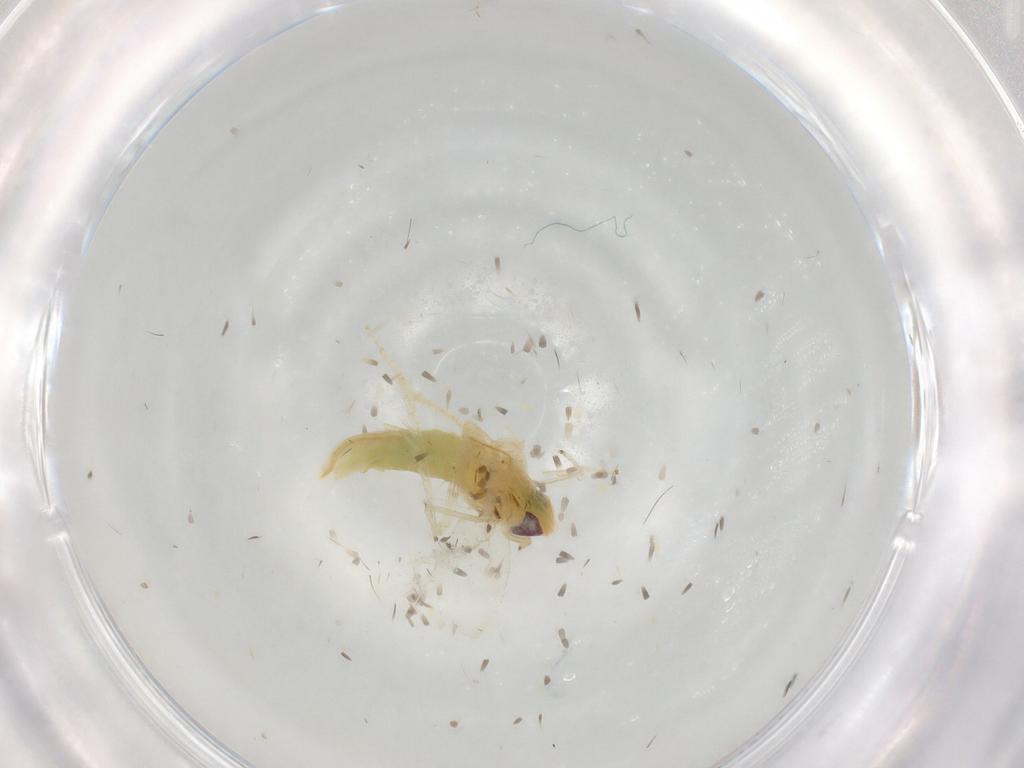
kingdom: Animalia
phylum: Arthropoda
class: Insecta
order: Hemiptera
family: Cicadellidae
